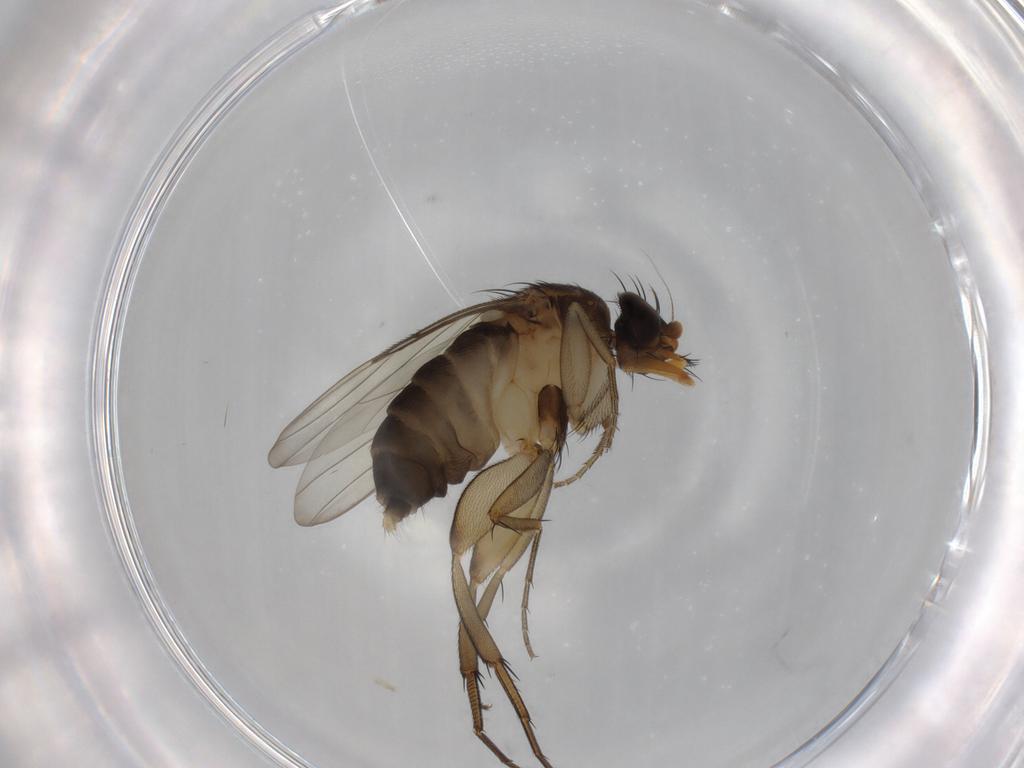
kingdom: Animalia
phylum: Arthropoda
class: Insecta
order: Diptera
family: Phoridae
